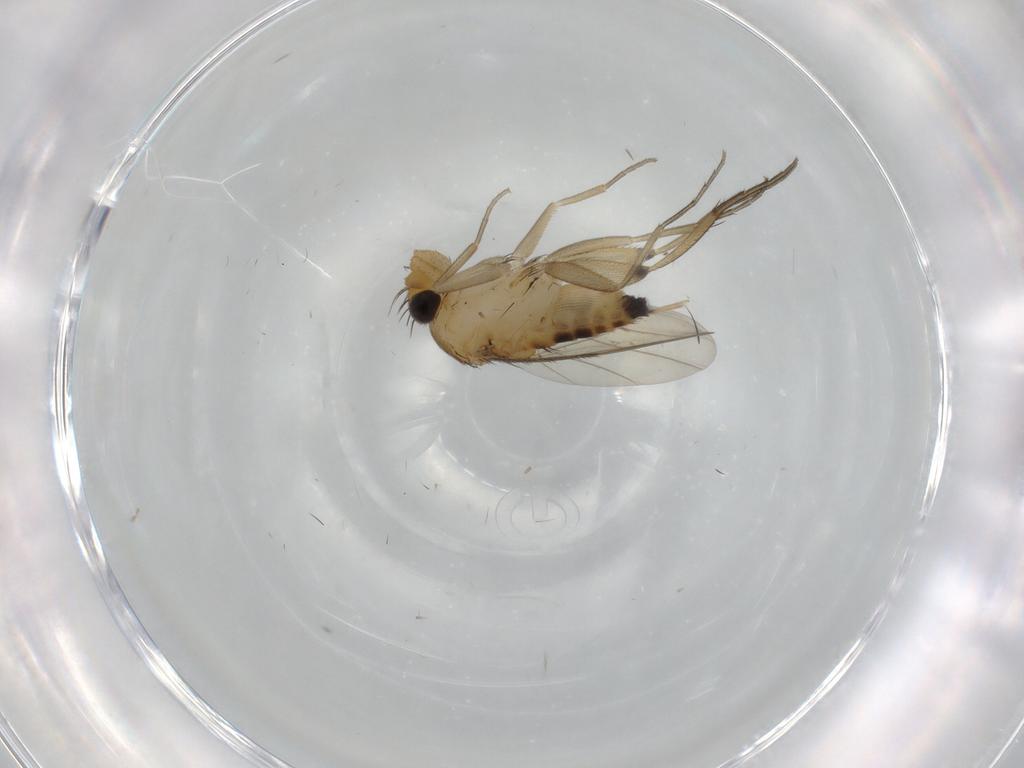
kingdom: Animalia
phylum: Arthropoda
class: Insecta
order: Diptera
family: Phoridae
